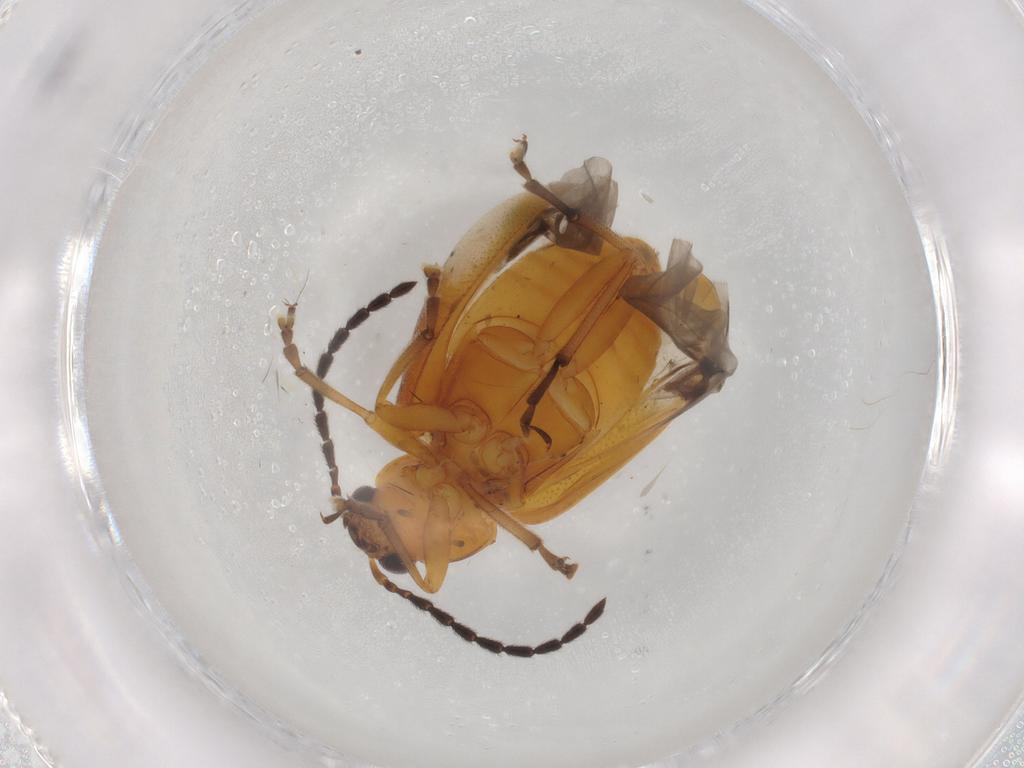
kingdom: Animalia
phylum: Arthropoda
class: Insecta
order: Coleoptera
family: Chrysomelidae
